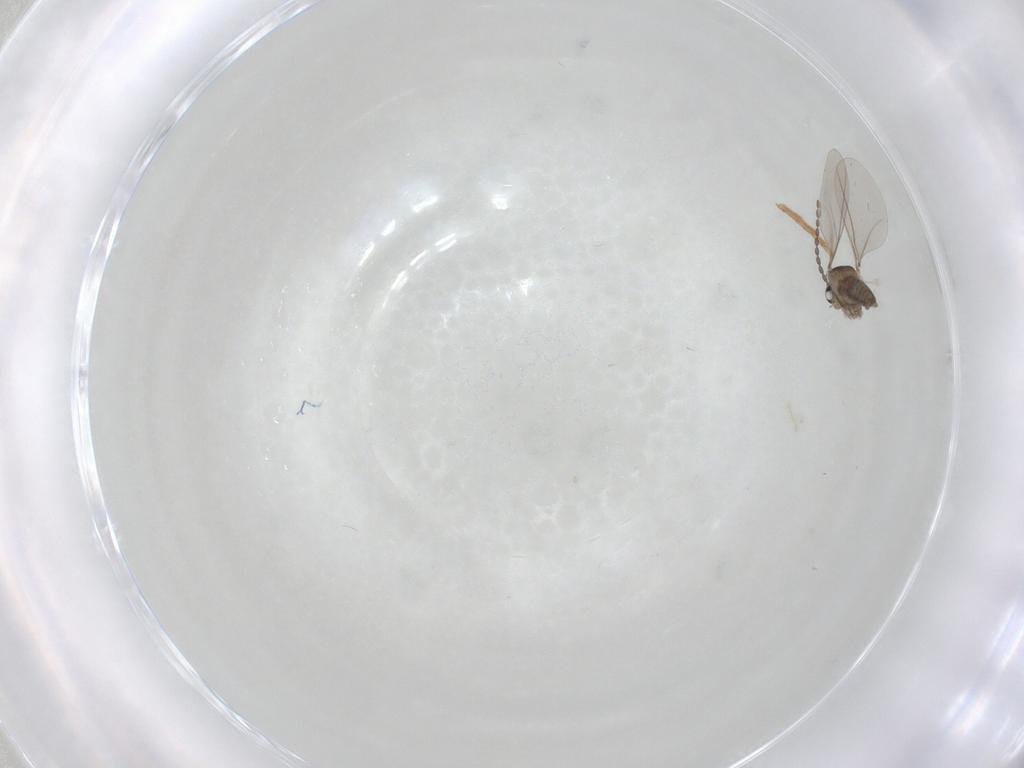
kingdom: Animalia
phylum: Arthropoda
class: Insecta
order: Diptera
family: Cecidomyiidae
